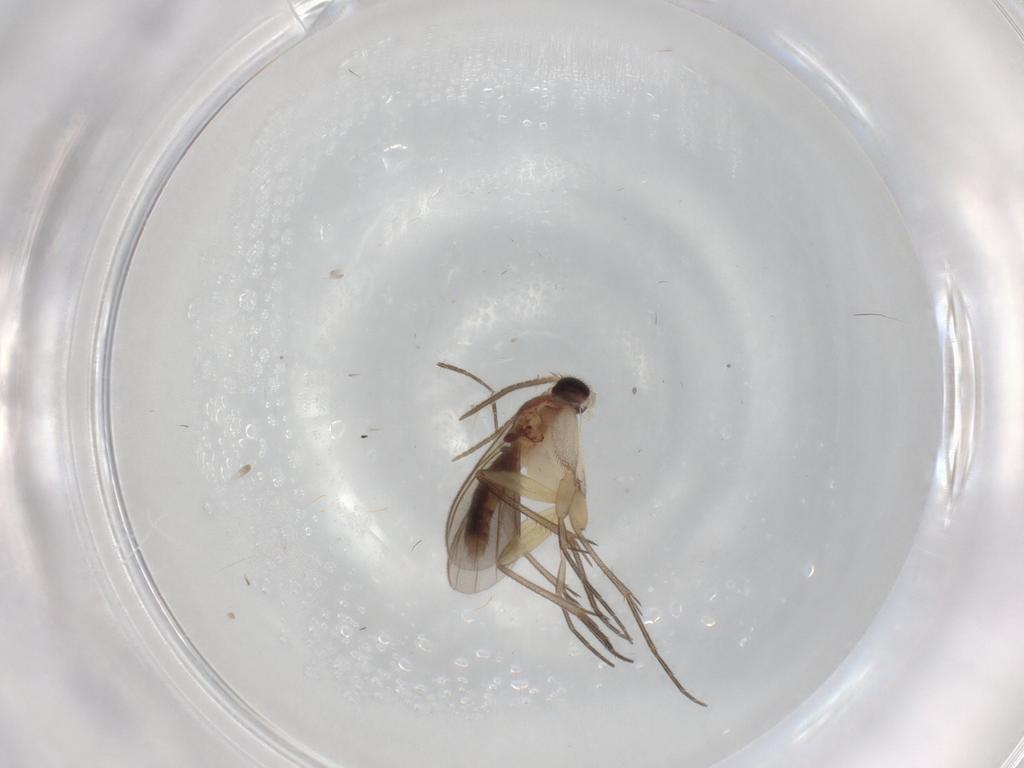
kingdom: Animalia
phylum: Arthropoda
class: Insecta
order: Diptera
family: Mycetophilidae
